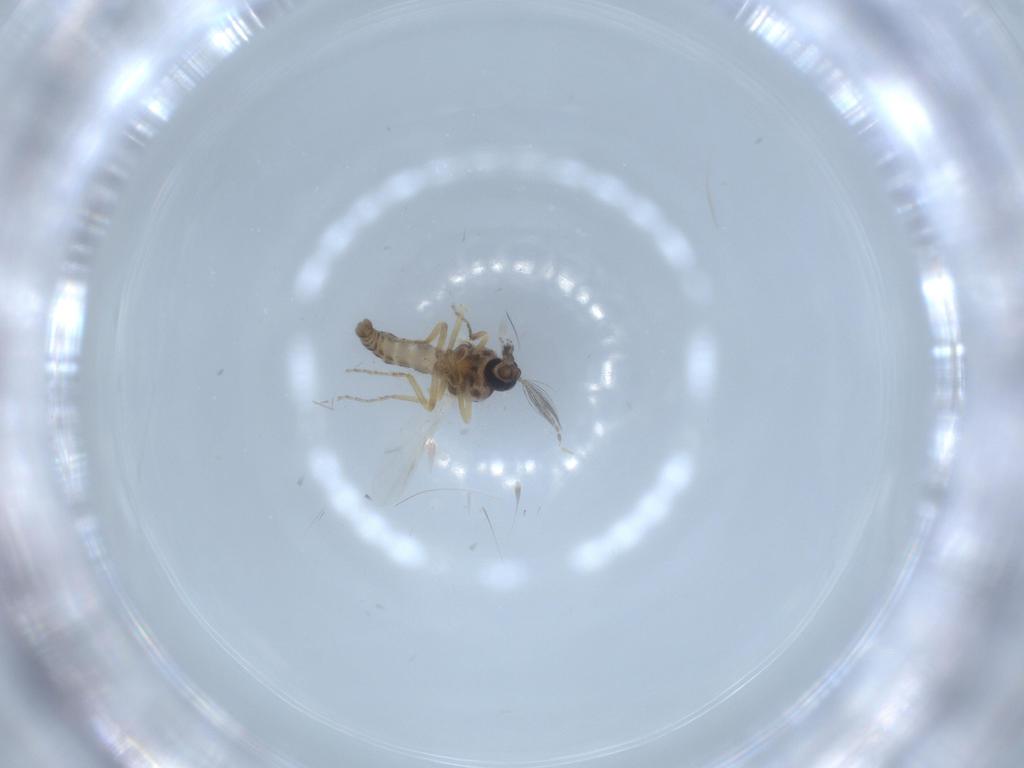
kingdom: Animalia
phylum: Arthropoda
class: Insecta
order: Diptera
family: Ceratopogonidae
